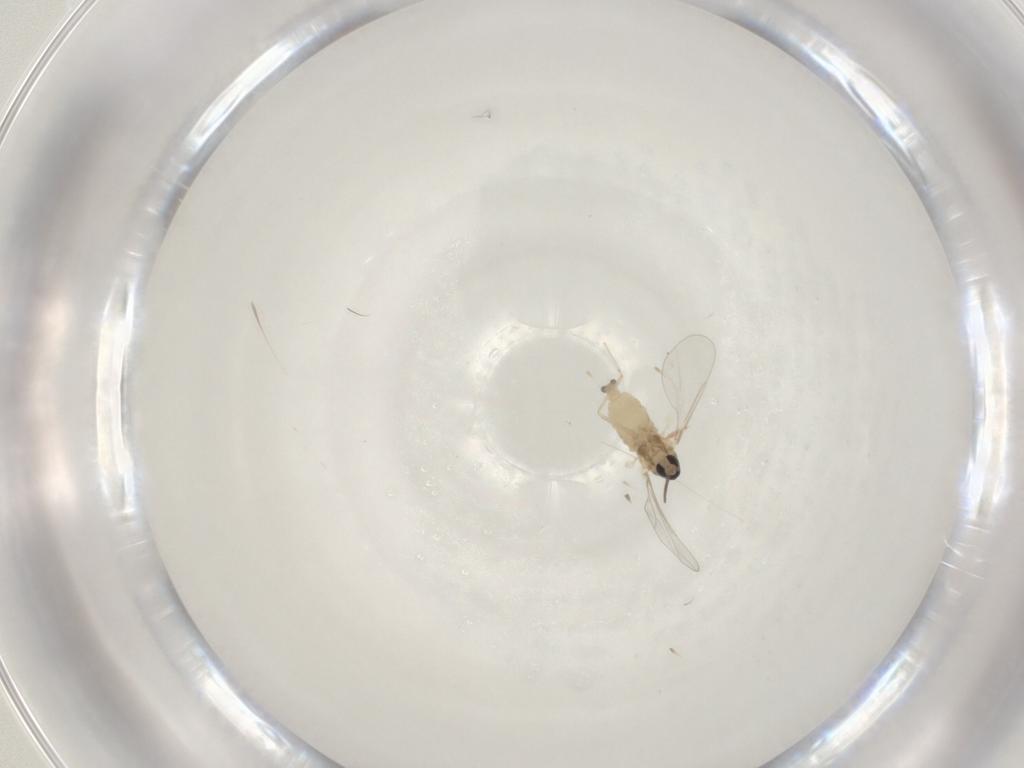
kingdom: Animalia
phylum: Arthropoda
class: Insecta
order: Diptera
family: Cecidomyiidae
